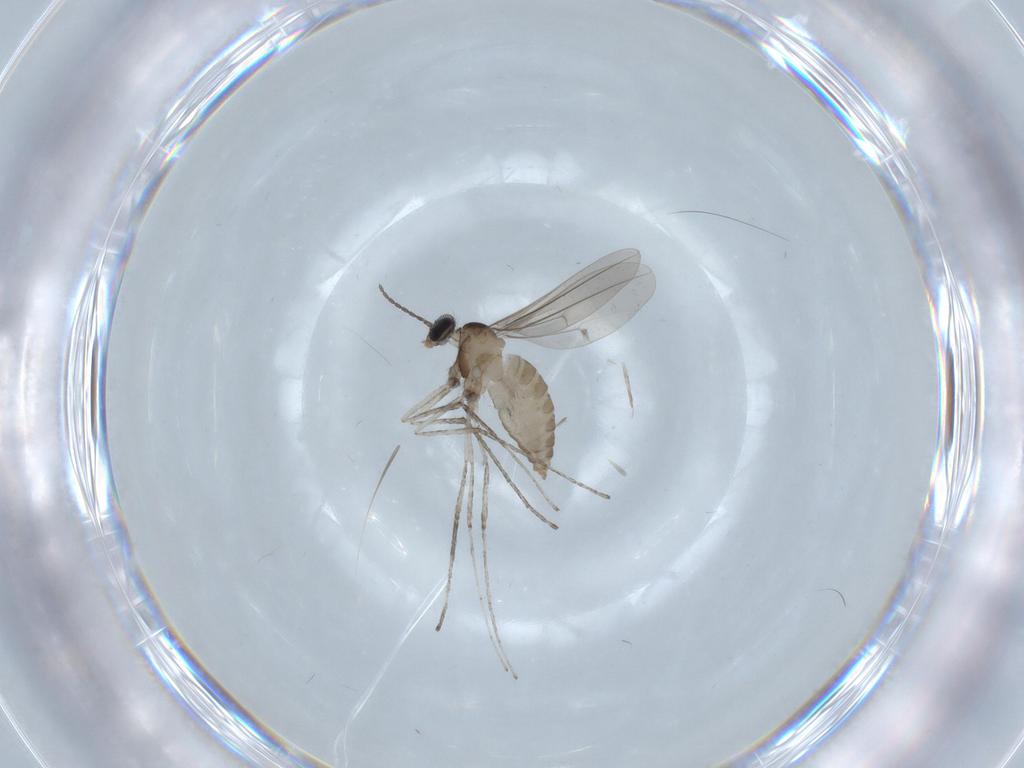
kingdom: Animalia
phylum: Arthropoda
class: Insecta
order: Diptera
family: Cecidomyiidae
